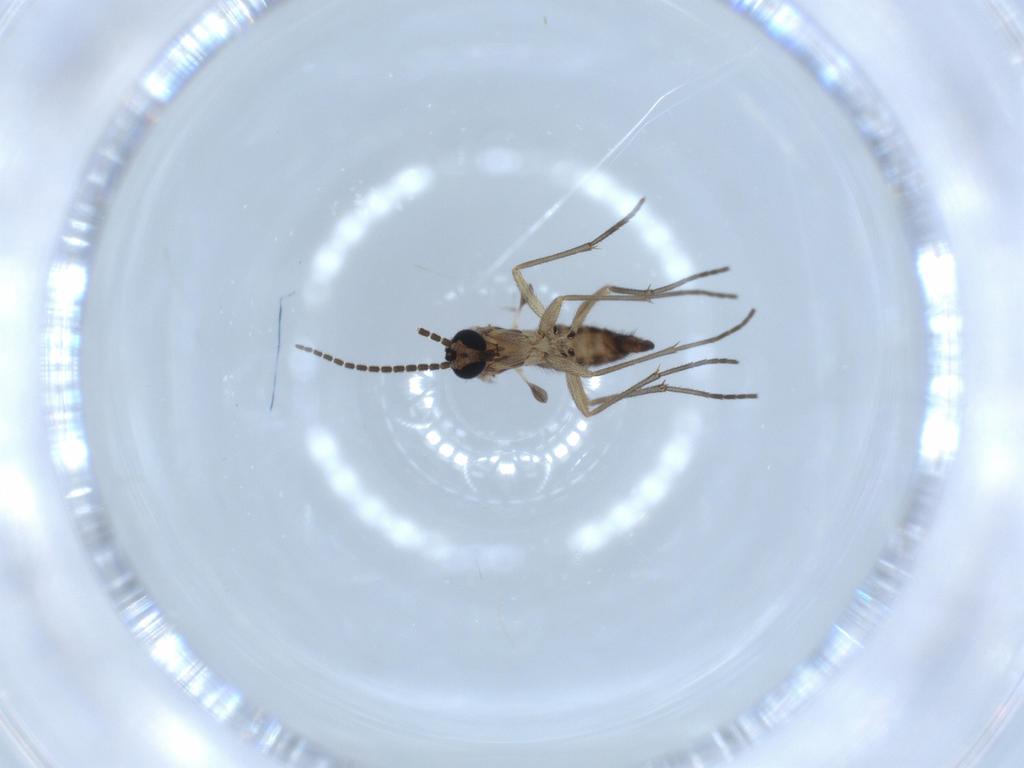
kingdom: Animalia
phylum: Arthropoda
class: Insecta
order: Diptera
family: Sciaridae
